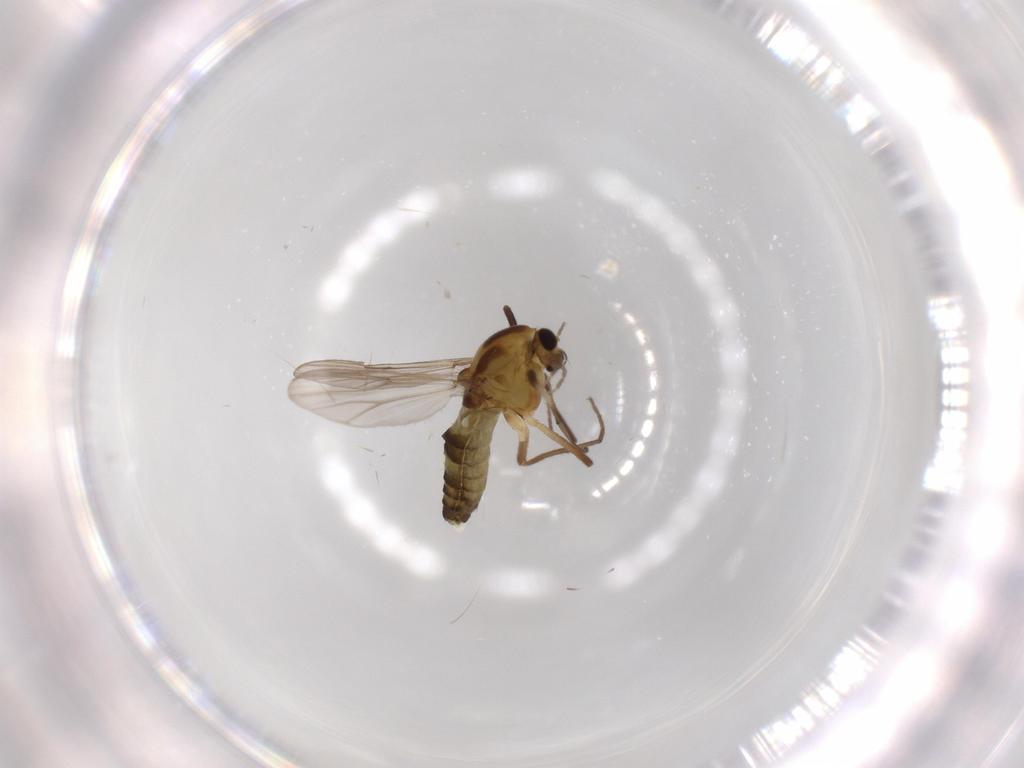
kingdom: Animalia
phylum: Arthropoda
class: Insecta
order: Diptera
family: Chironomidae
